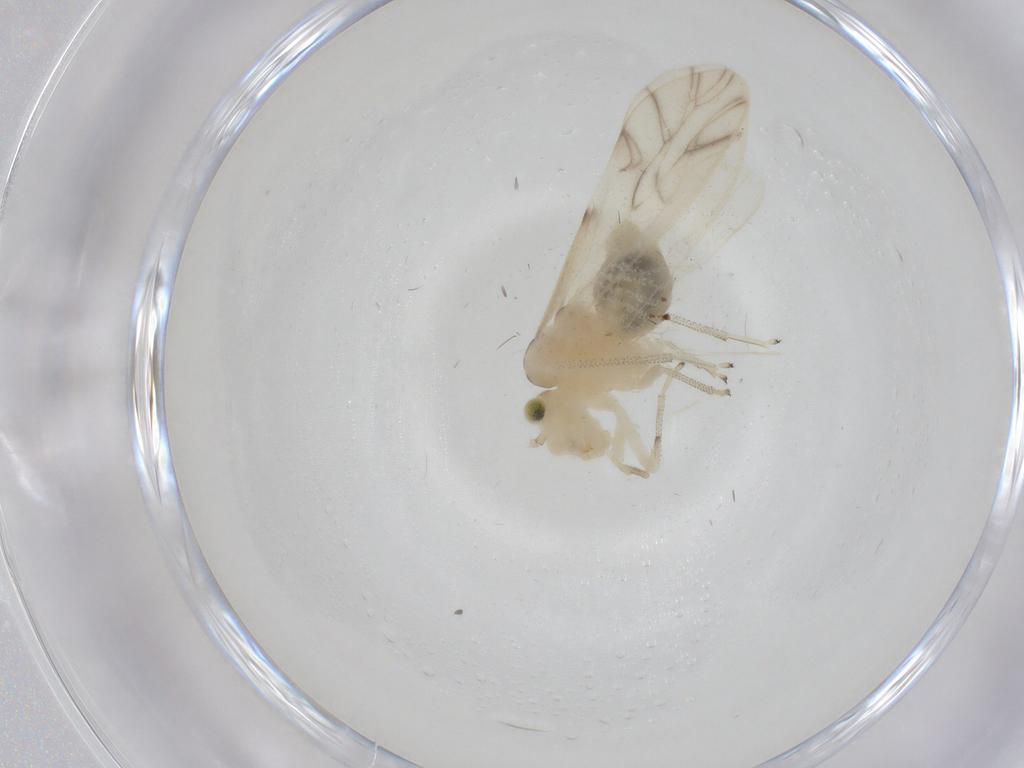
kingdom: Animalia
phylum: Arthropoda
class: Insecta
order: Psocodea
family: Caeciliusidae
